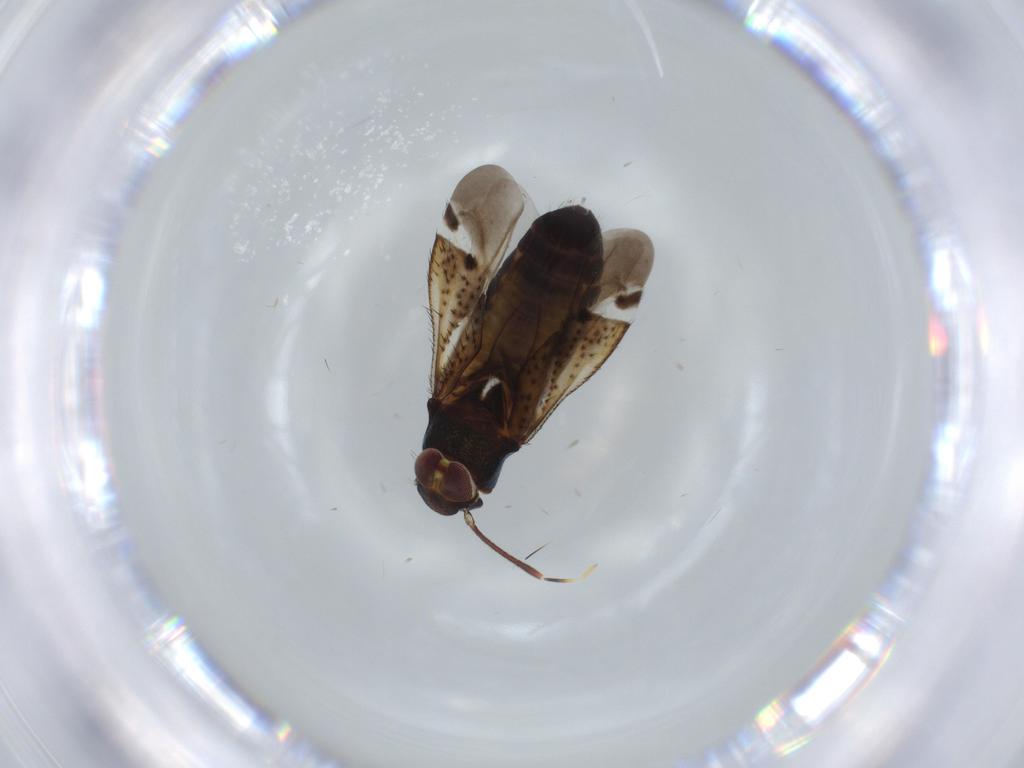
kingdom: Animalia
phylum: Arthropoda
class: Insecta
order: Hemiptera
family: Miridae
